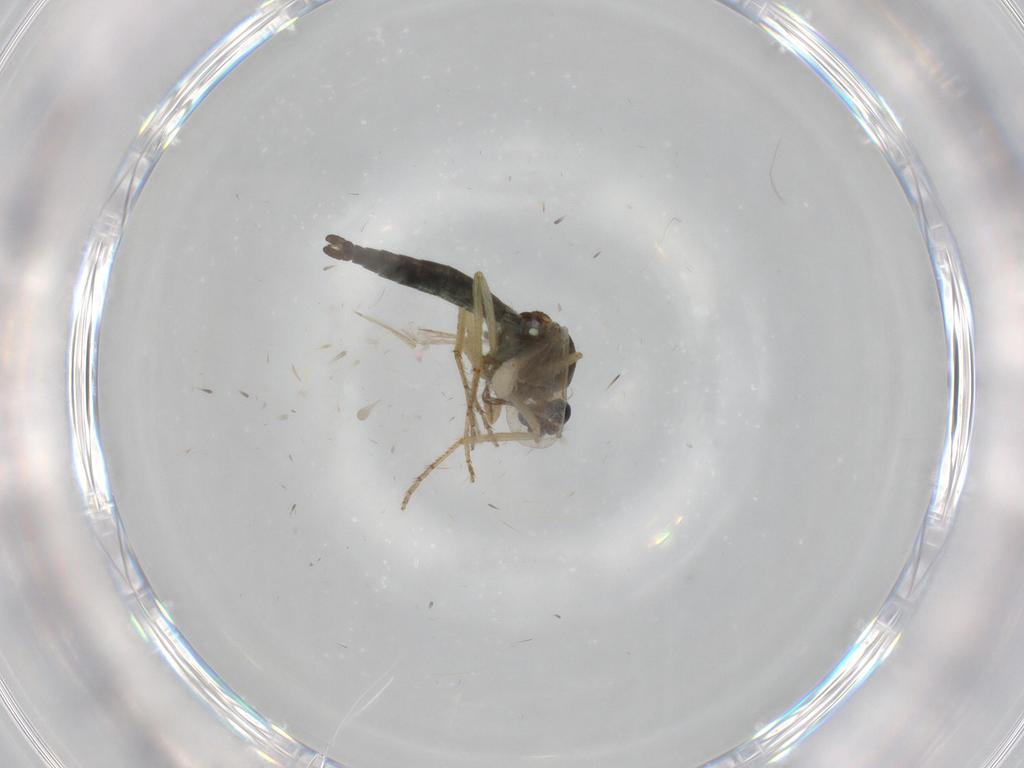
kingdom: Animalia
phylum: Arthropoda
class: Insecta
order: Diptera
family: Ceratopogonidae
